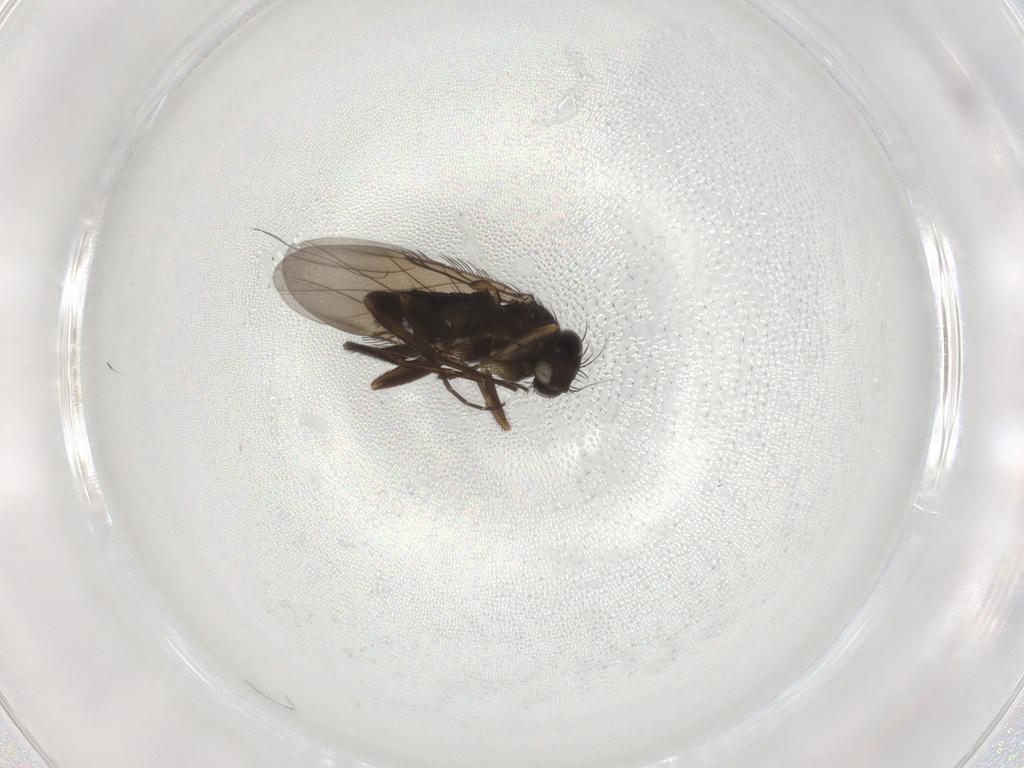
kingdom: Animalia
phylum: Arthropoda
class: Insecta
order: Diptera
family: Phoridae
